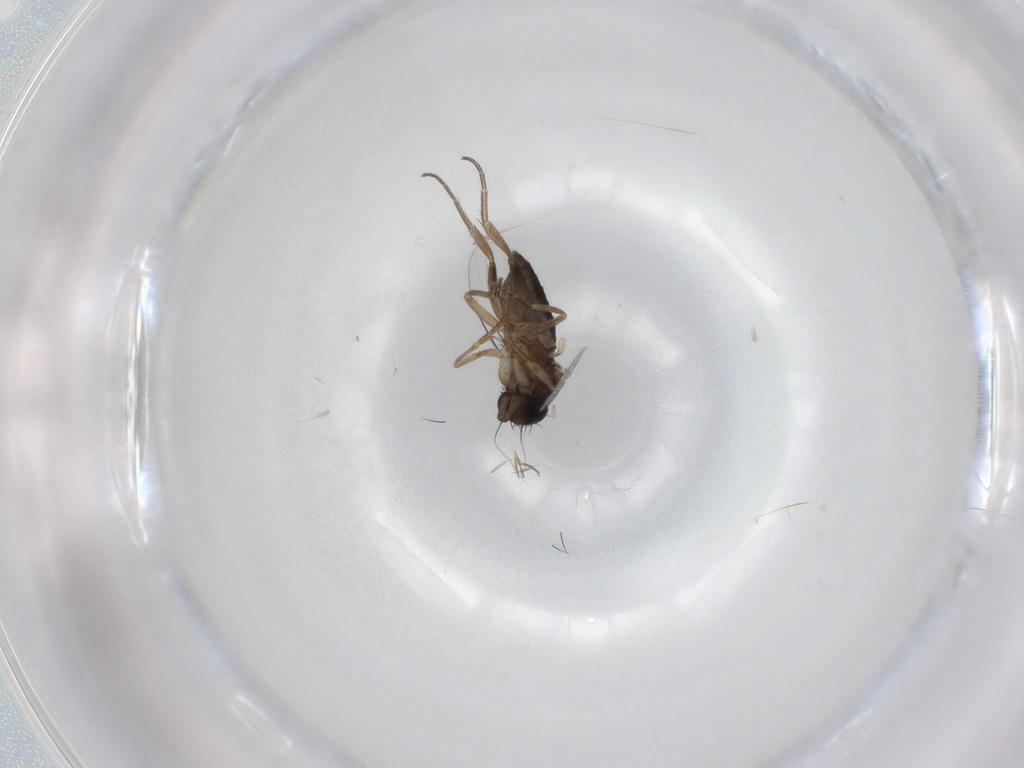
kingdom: Animalia
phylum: Arthropoda
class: Insecta
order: Diptera
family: Phoridae
